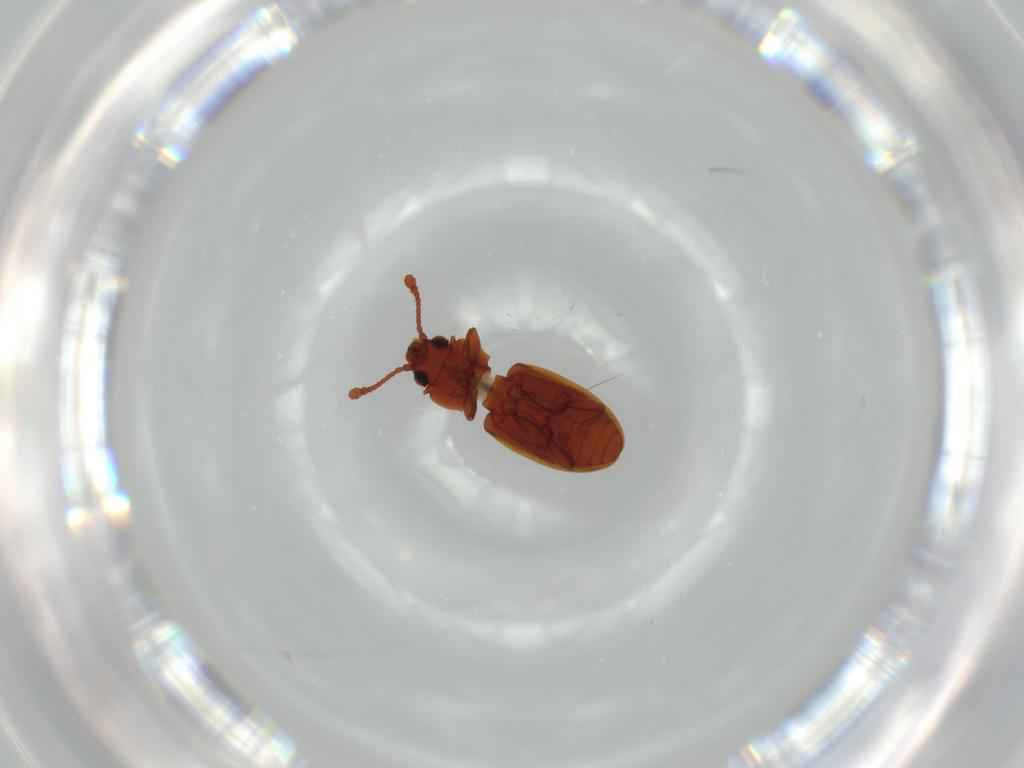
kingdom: Animalia
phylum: Arthropoda
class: Insecta
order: Coleoptera
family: Silvanidae
